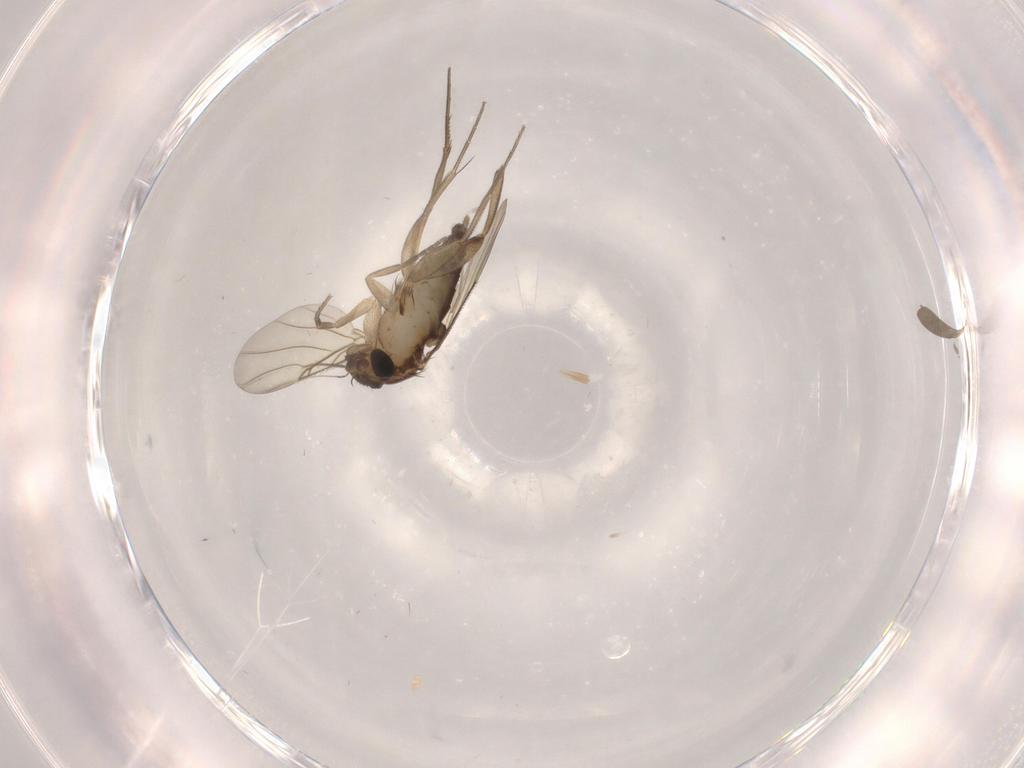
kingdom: Animalia
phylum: Arthropoda
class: Insecta
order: Diptera
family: Phoridae
